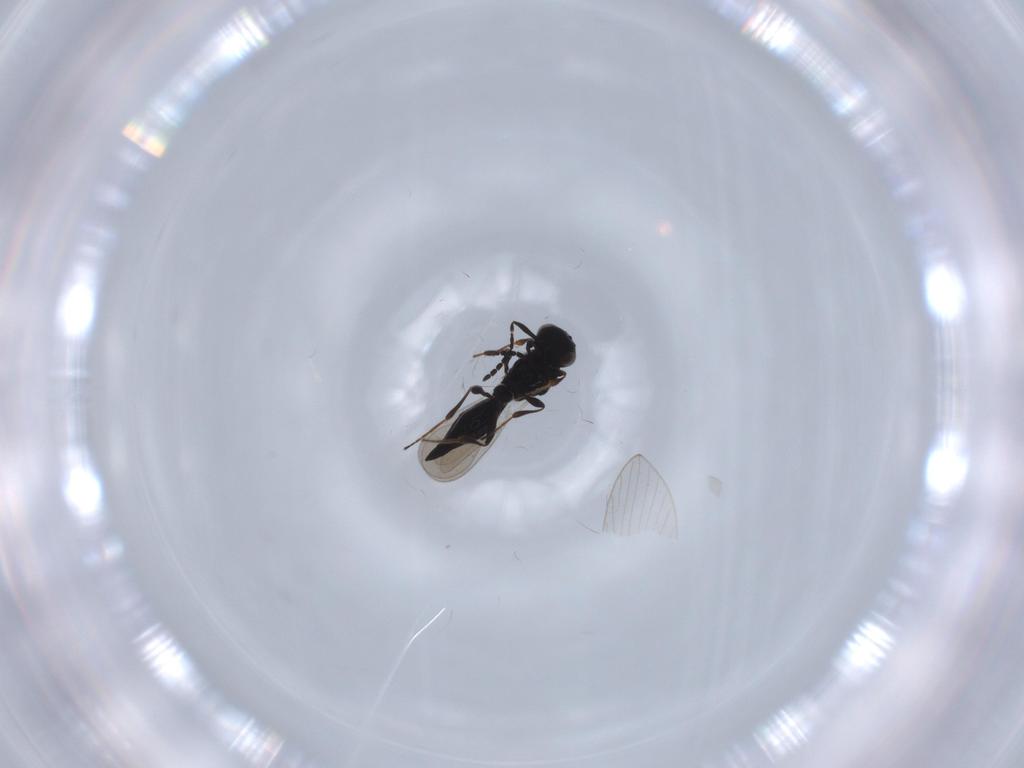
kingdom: Animalia
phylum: Arthropoda
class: Insecta
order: Hymenoptera
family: Platygastridae
